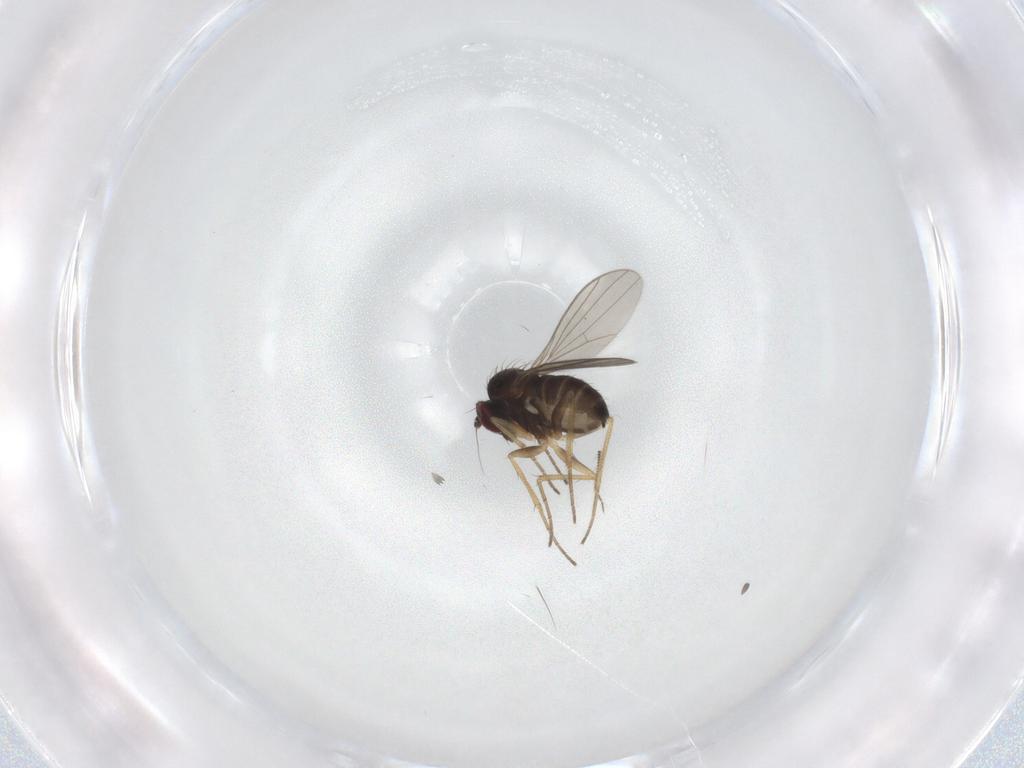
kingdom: Animalia
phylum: Arthropoda
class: Insecta
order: Diptera
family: Dolichopodidae
